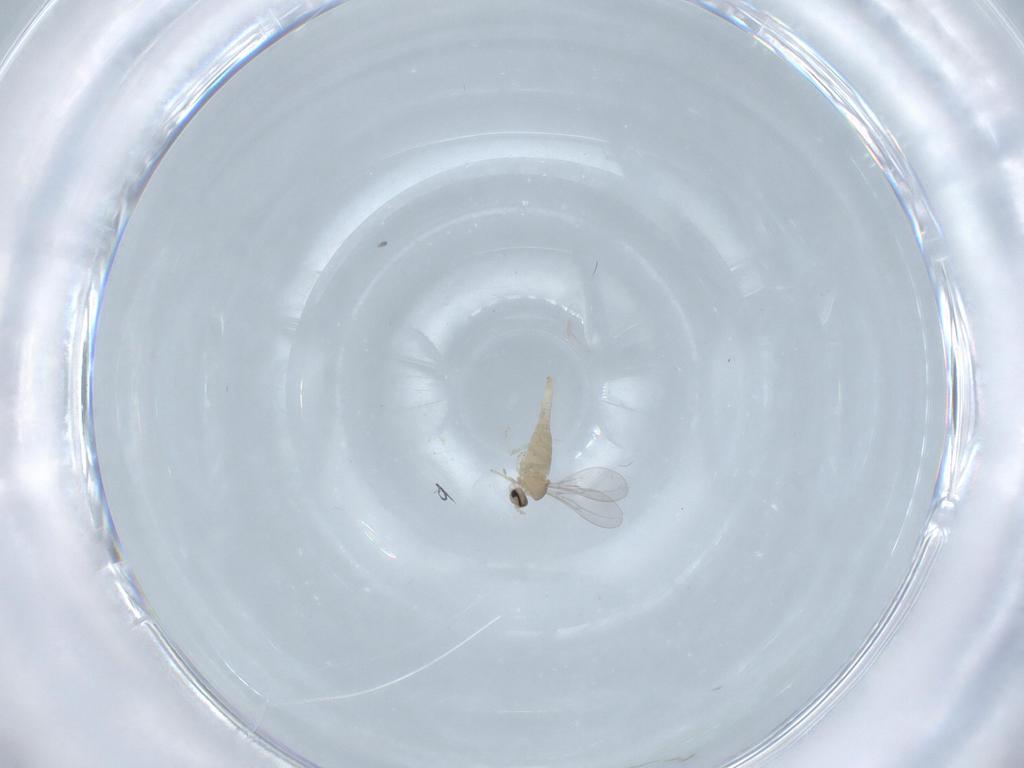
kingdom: Animalia
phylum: Arthropoda
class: Insecta
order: Diptera
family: Cecidomyiidae
